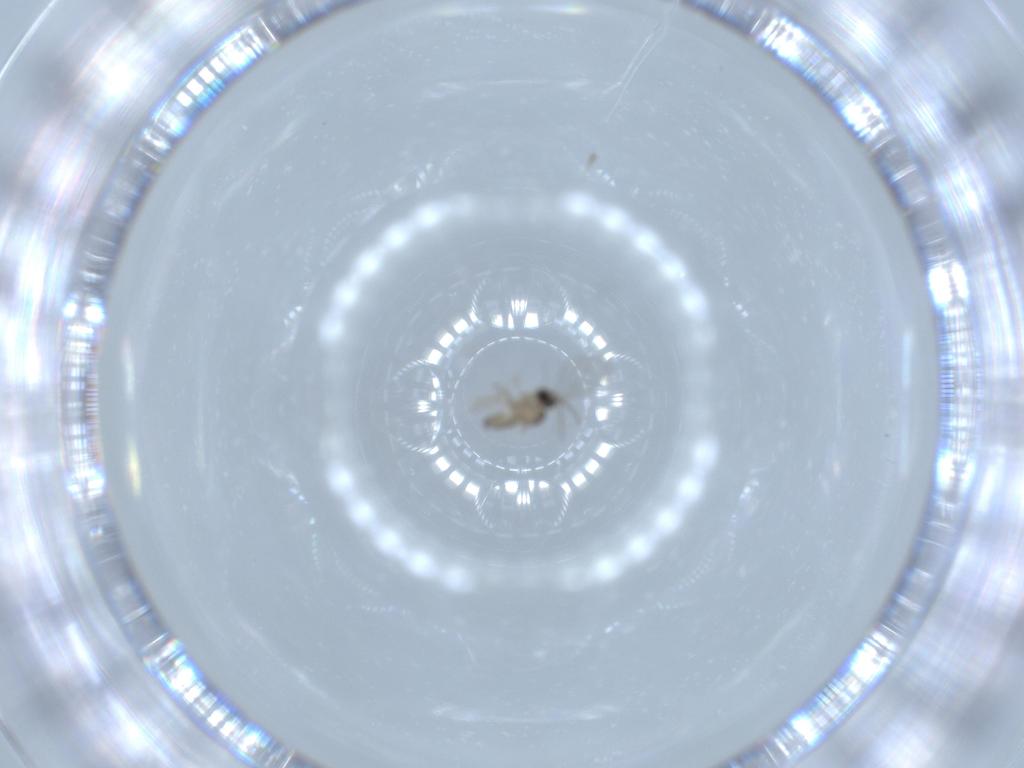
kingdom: Animalia
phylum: Arthropoda
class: Insecta
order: Diptera
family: Cecidomyiidae
